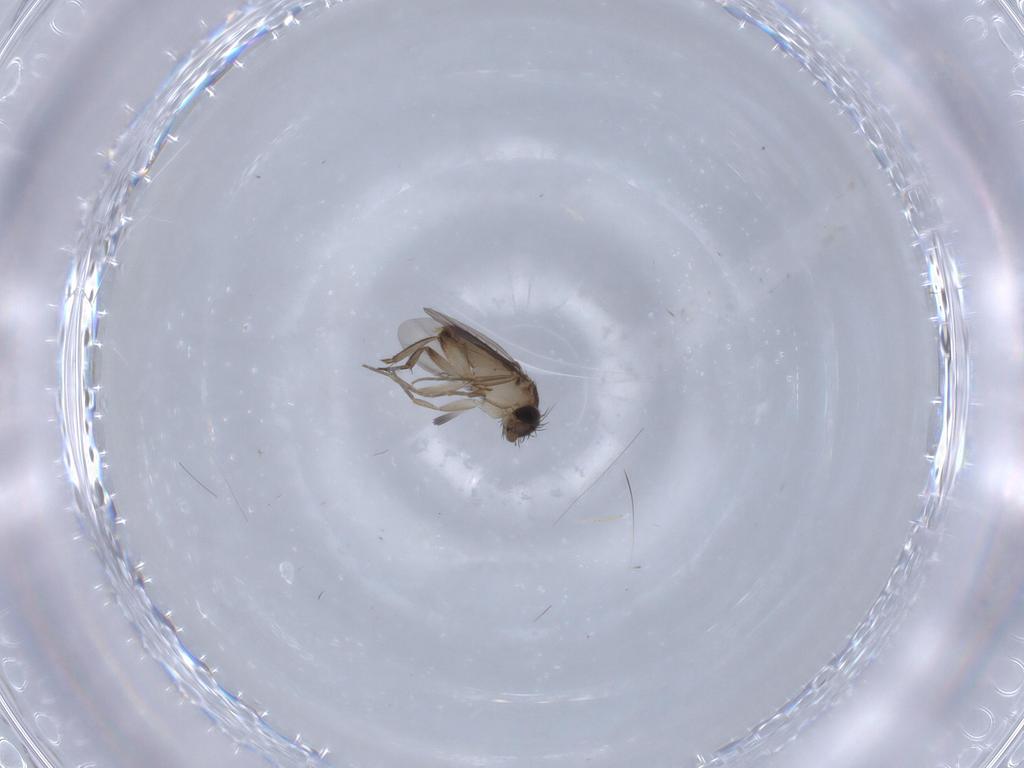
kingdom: Animalia
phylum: Arthropoda
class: Insecta
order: Diptera
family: Phoridae
